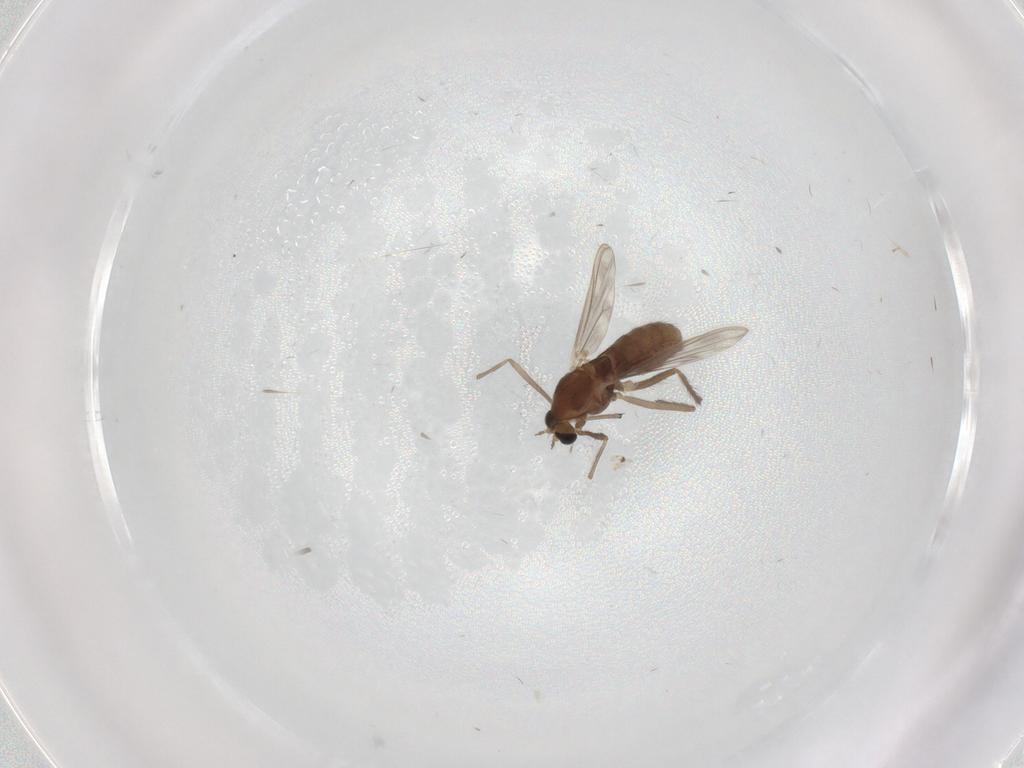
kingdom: Animalia
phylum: Arthropoda
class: Insecta
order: Diptera
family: Chironomidae
